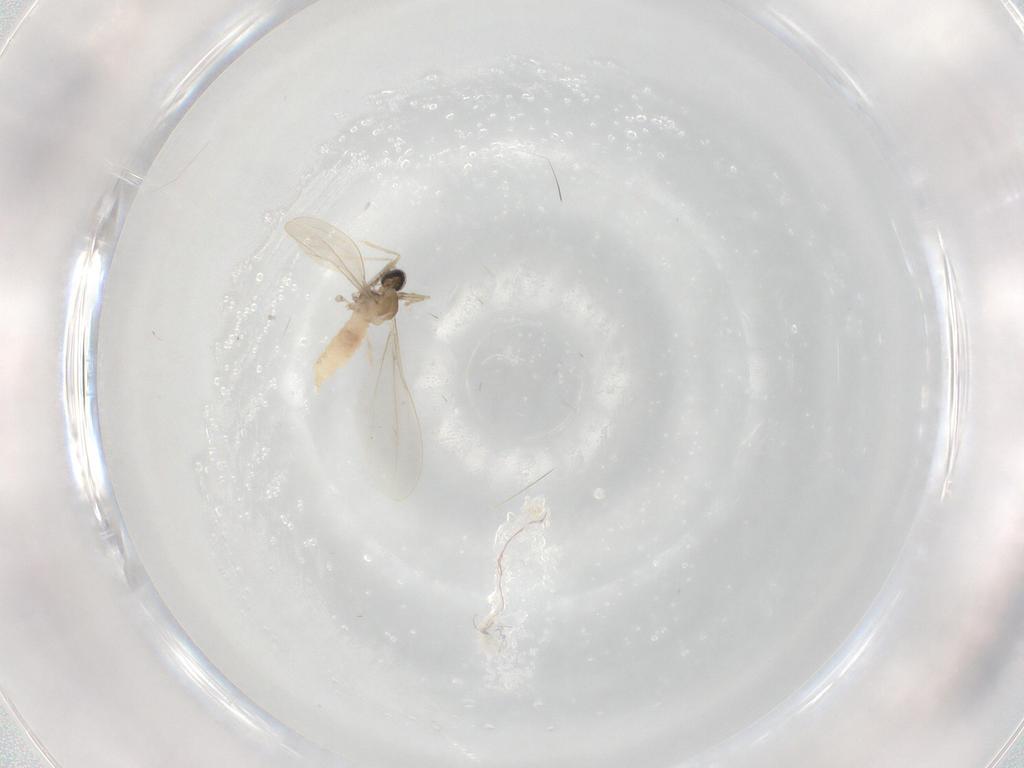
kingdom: Animalia
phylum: Arthropoda
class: Insecta
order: Diptera
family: Cecidomyiidae
